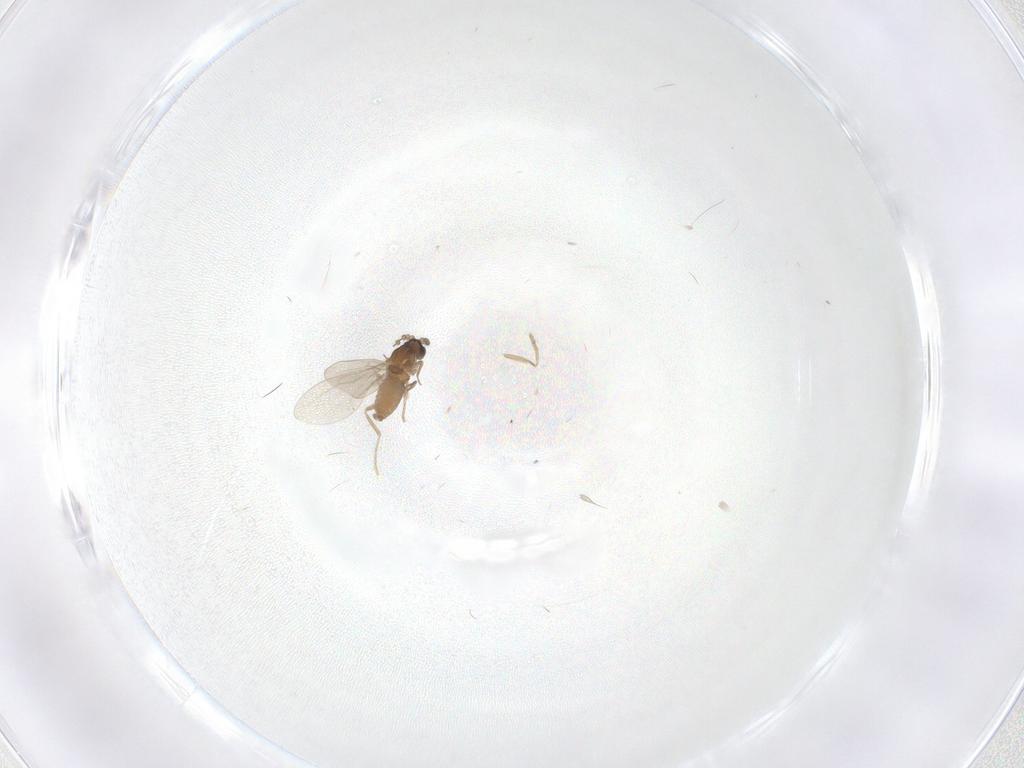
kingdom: Animalia
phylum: Arthropoda
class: Insecta
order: Diptera
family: Cecidomyiidae
